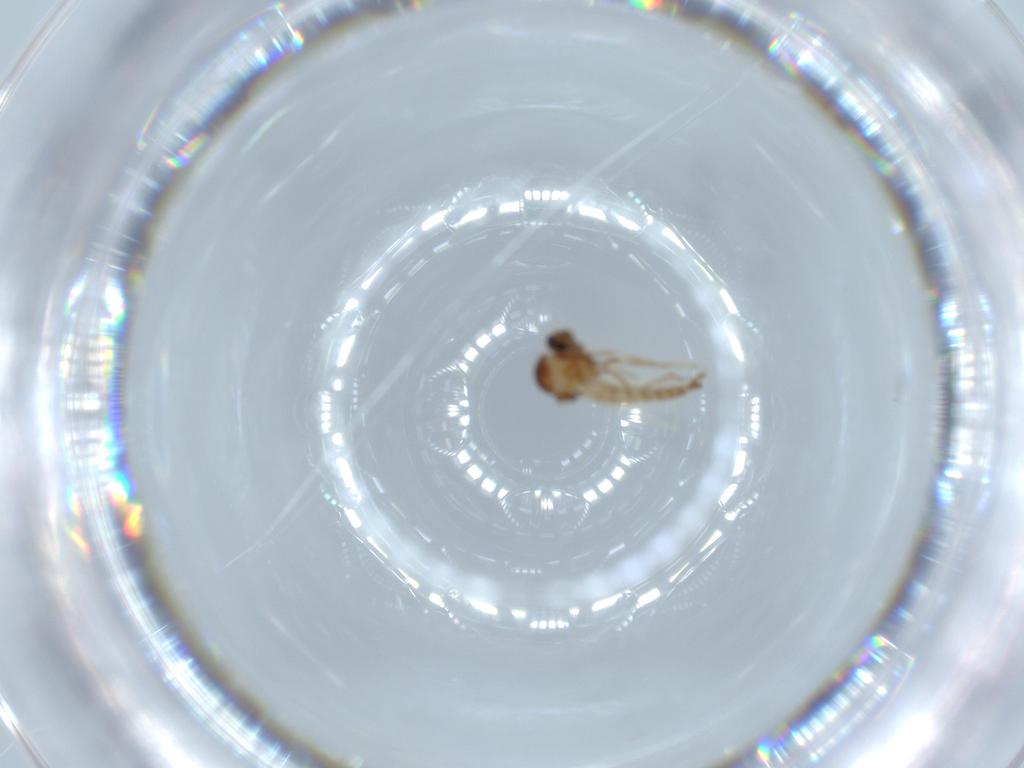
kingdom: Animalia
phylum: Arthropoda
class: Insecta
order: Diptera
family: Ceratopogonidae
